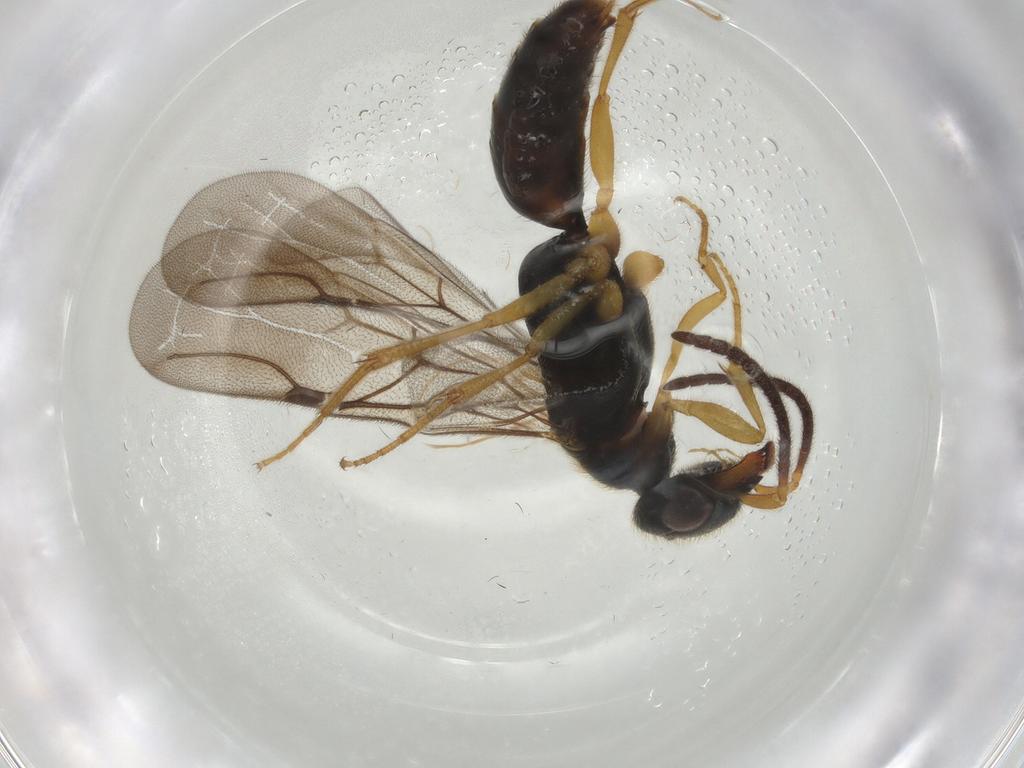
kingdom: Animalia
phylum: Arthropoda
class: Insecta
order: Hymenoptera
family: Bethylidae
